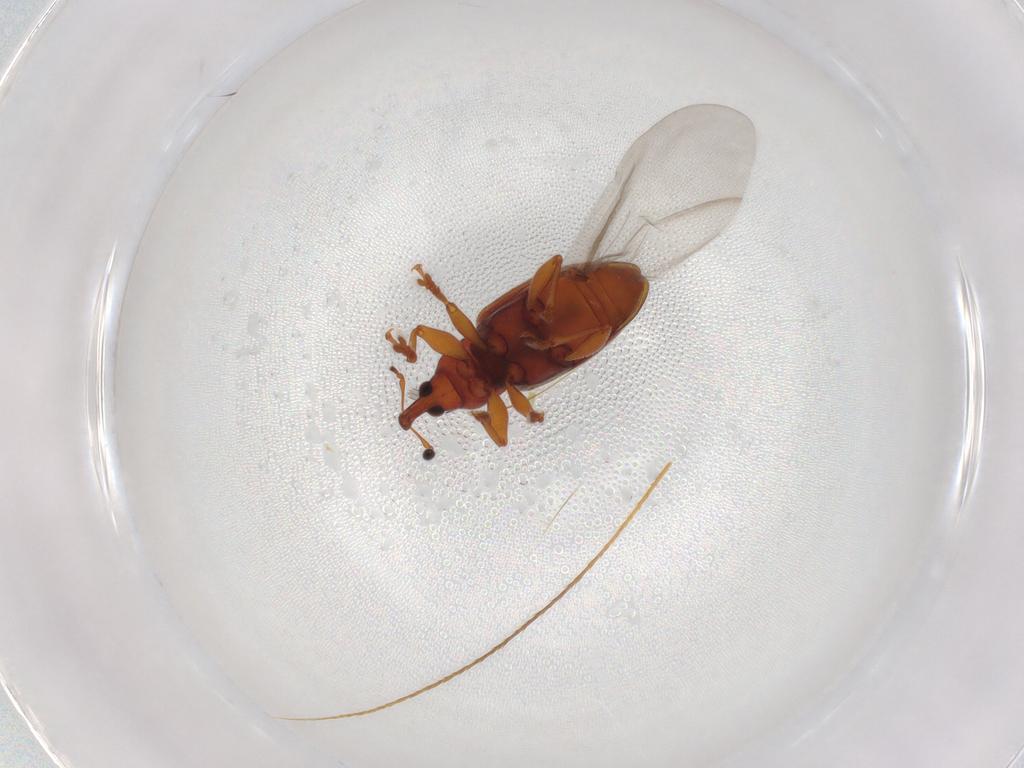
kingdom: Animalia
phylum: Arthropoda
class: Insecta
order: Coleoptera
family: Curculionidae
